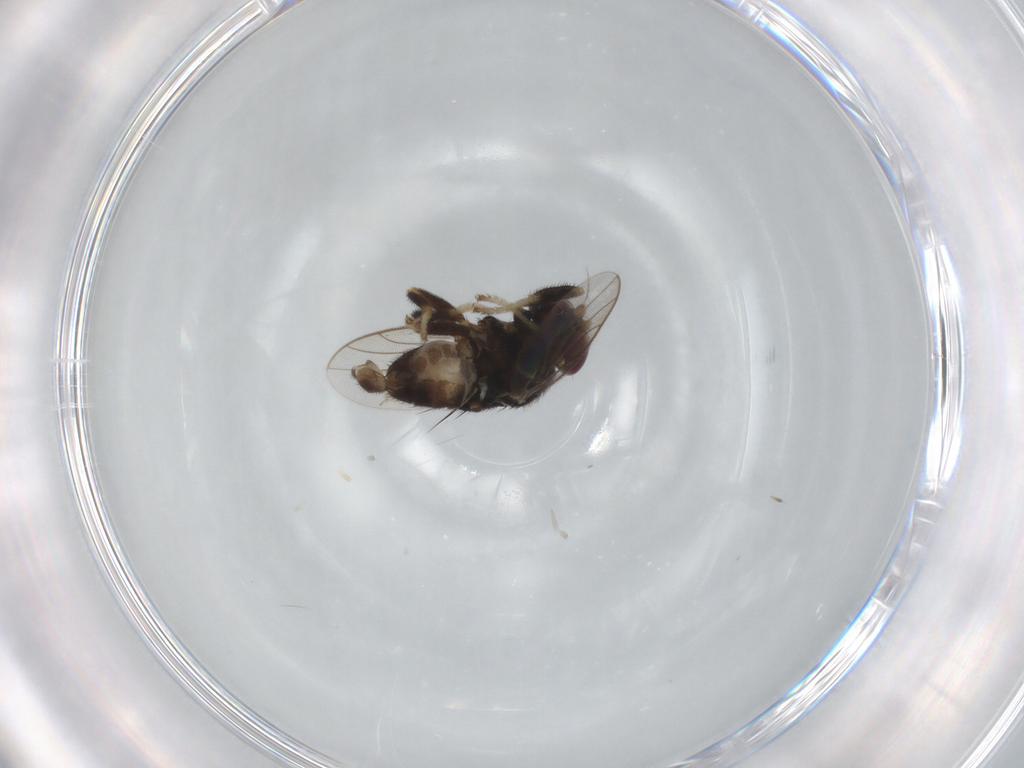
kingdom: Animalia
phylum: Arthropoda
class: Insecta
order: Diptera
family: Chloropidae
